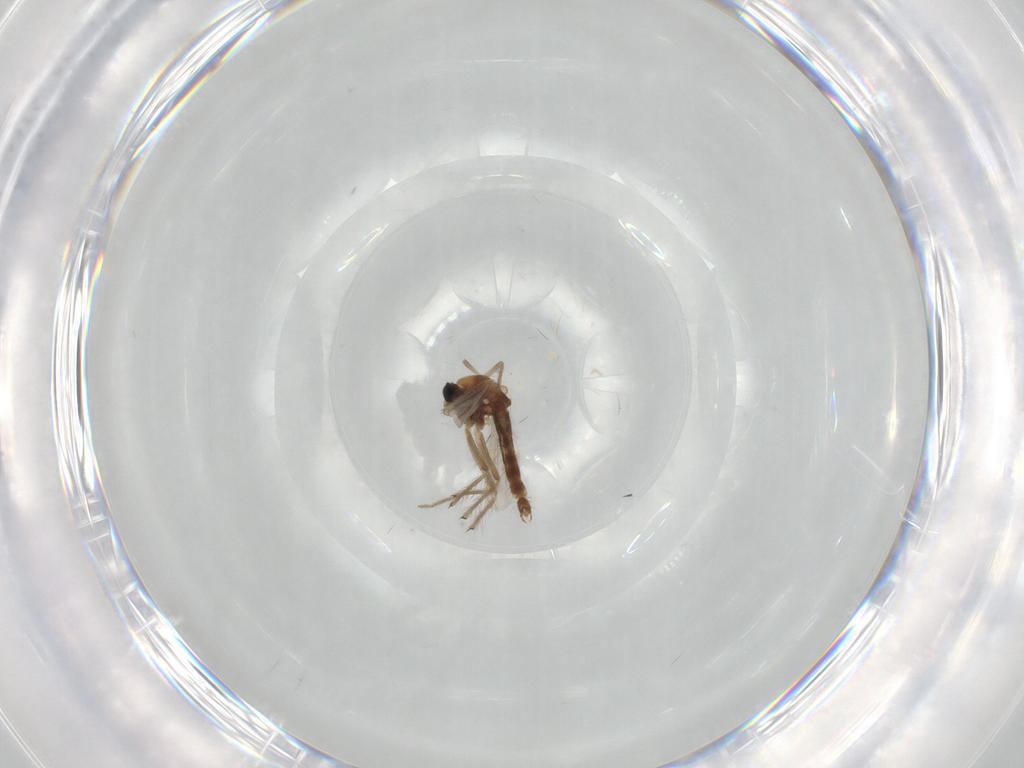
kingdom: Animalia
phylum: Arthropoda
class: Insecta
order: Diptera
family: Chironomidae
